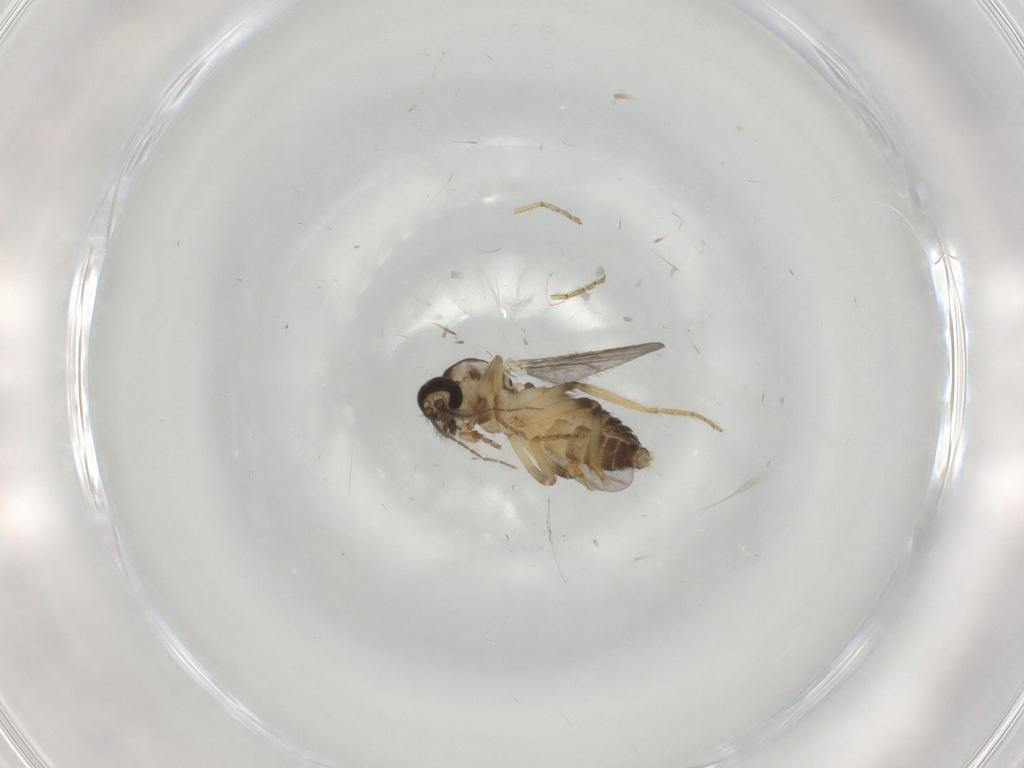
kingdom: Animalia
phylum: Arthropoda
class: Insecta
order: Diptera
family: Ceratopogonidae
